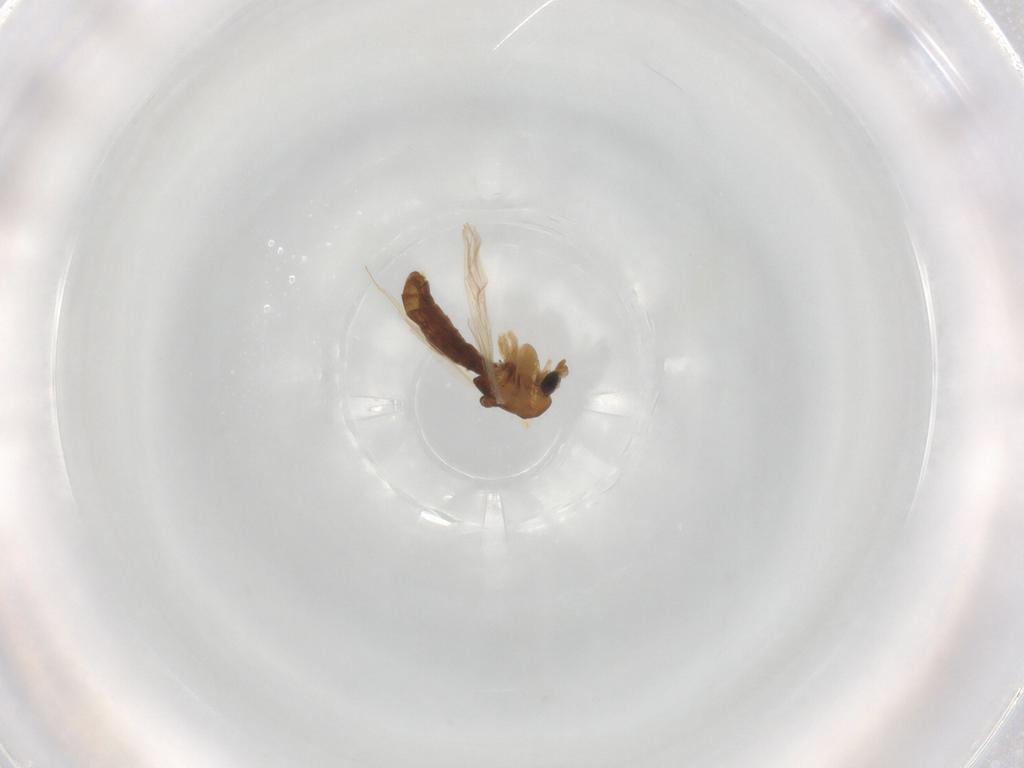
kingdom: Animalia
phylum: Arthropoda
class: Insecta
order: Diptera
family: Chironomidae
